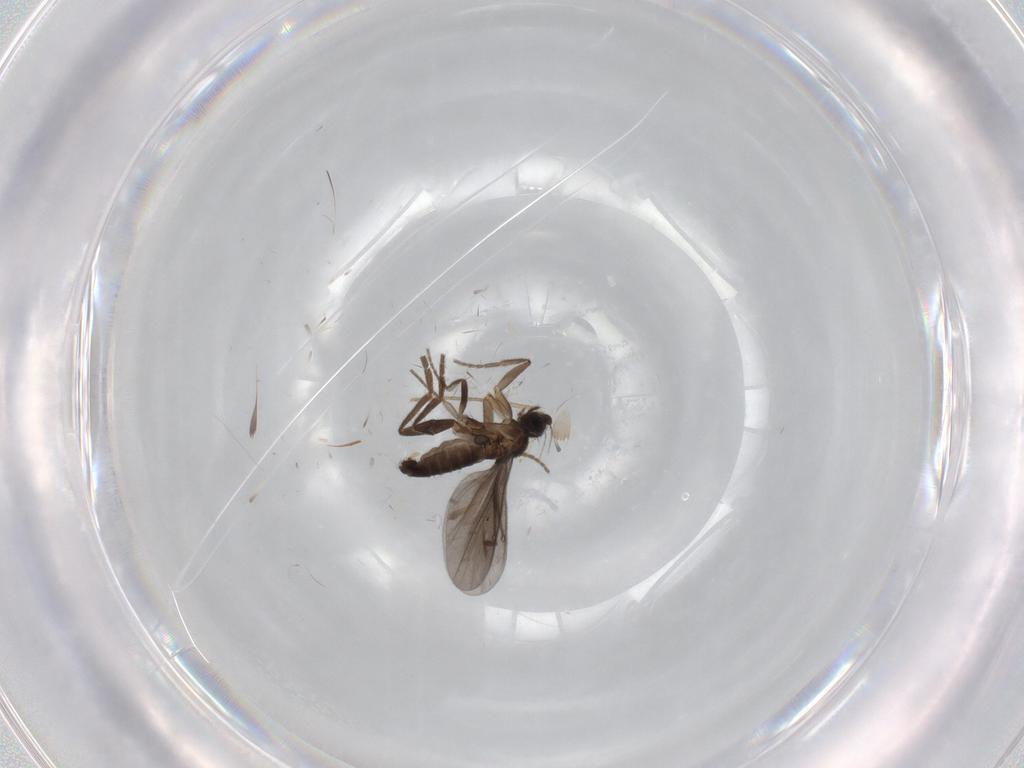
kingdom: Animalia
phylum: Arthropoda
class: Insecta
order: Diptera
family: Phoridae
